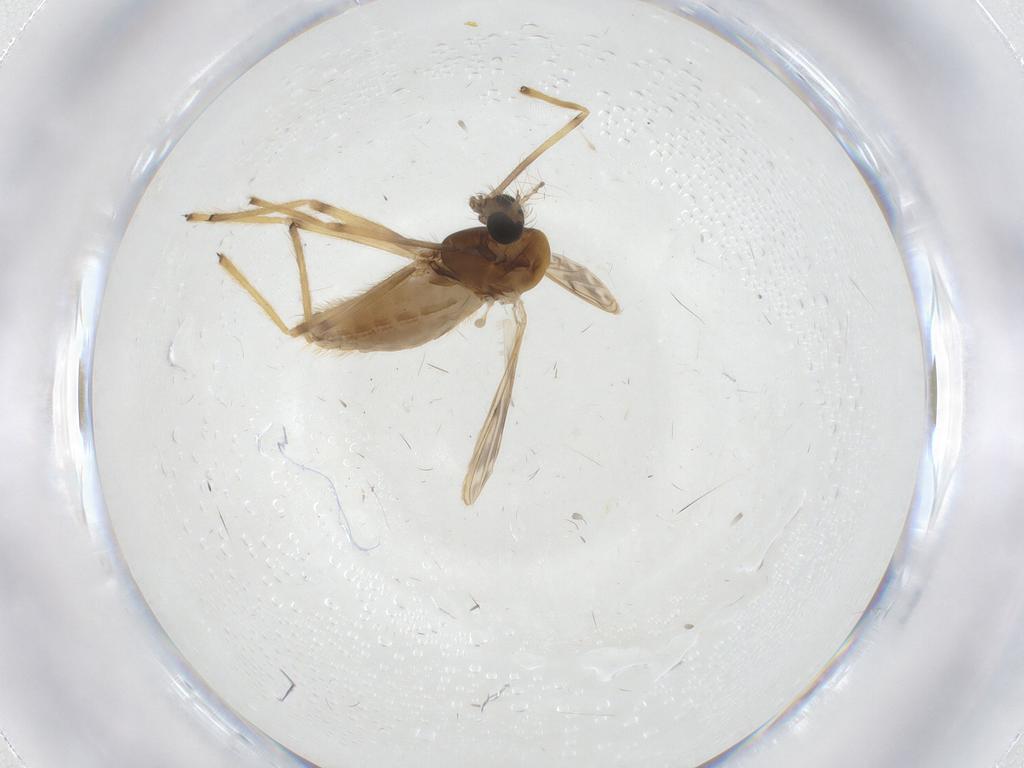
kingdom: Animalia
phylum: Arthropoda
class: Insecta
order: Diptera
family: Chironomidae
